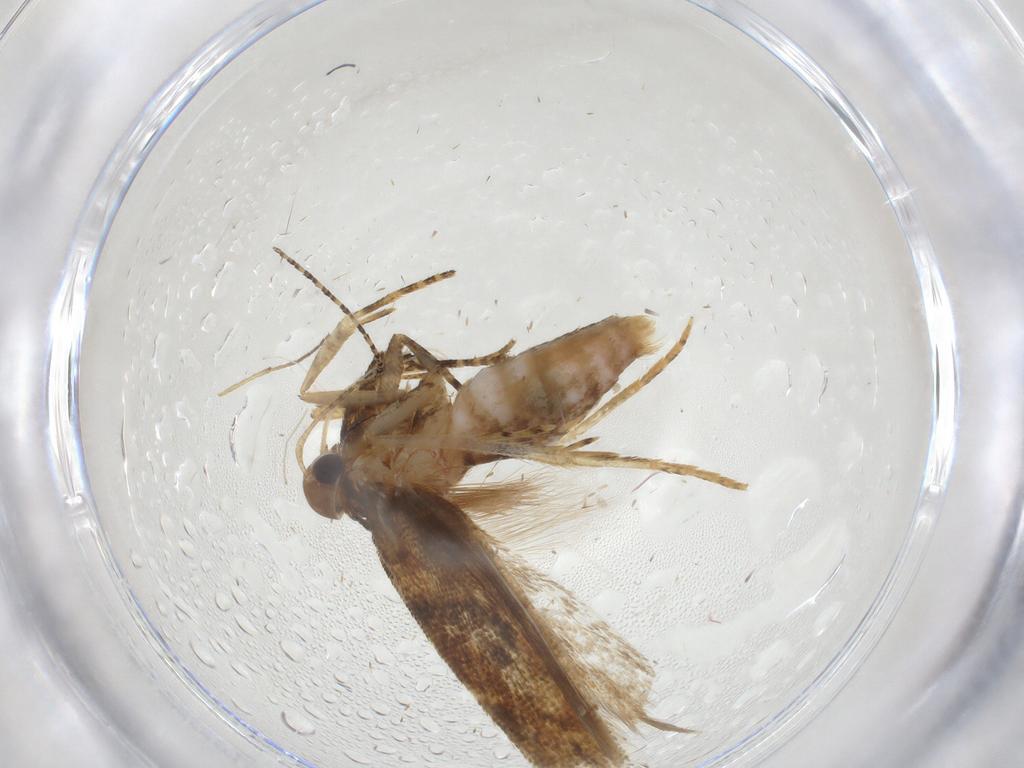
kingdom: Animalia
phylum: Arthropoda
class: Insecta
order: Lepidoptera
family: Gelechiidae
